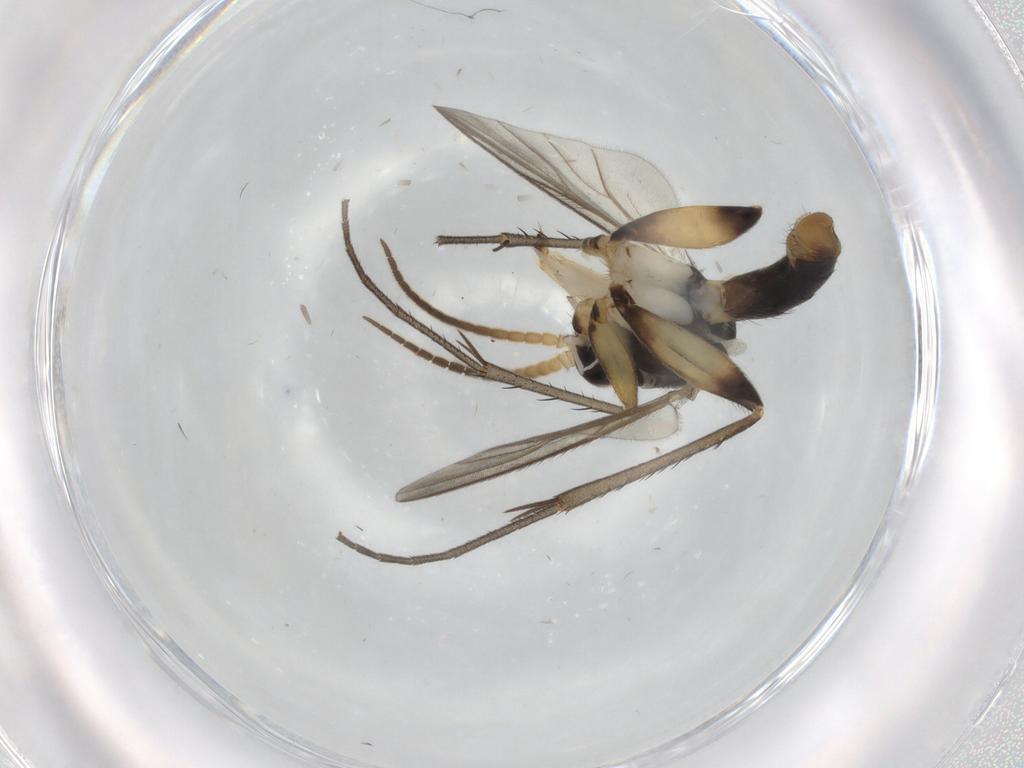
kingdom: Animalia
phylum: Arthropoda
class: Insecta
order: Diptera
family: Mycetophilidae
